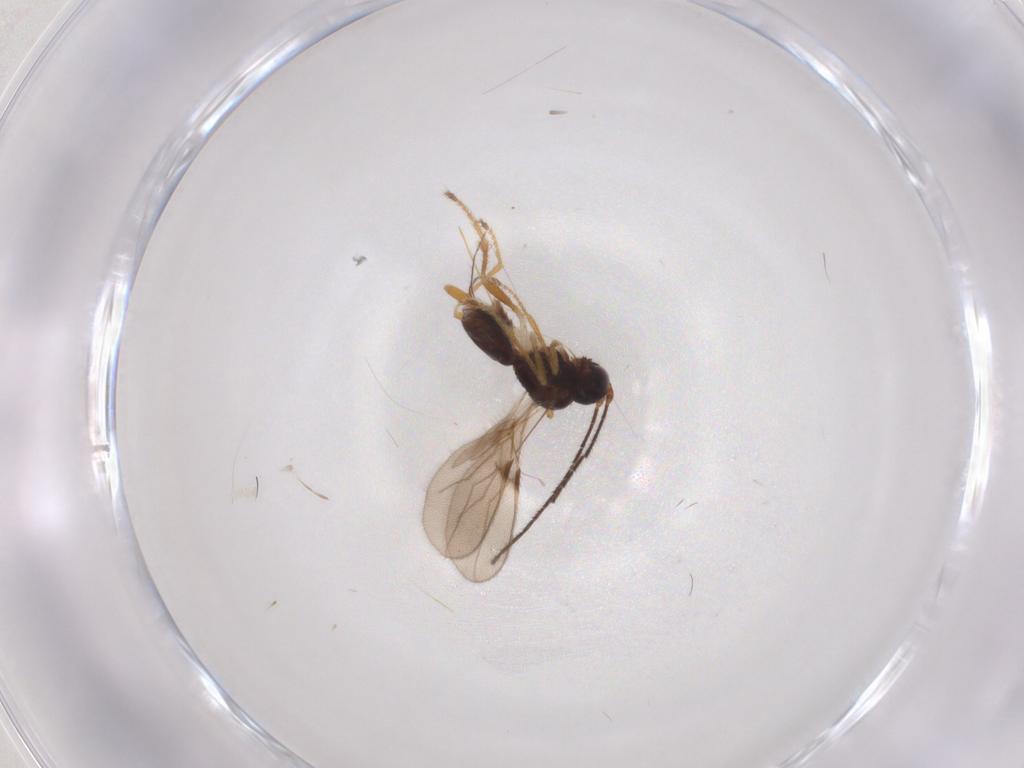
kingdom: Animalia
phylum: Arthropoda
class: Insecta
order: Hymenoptera
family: Braconidae
